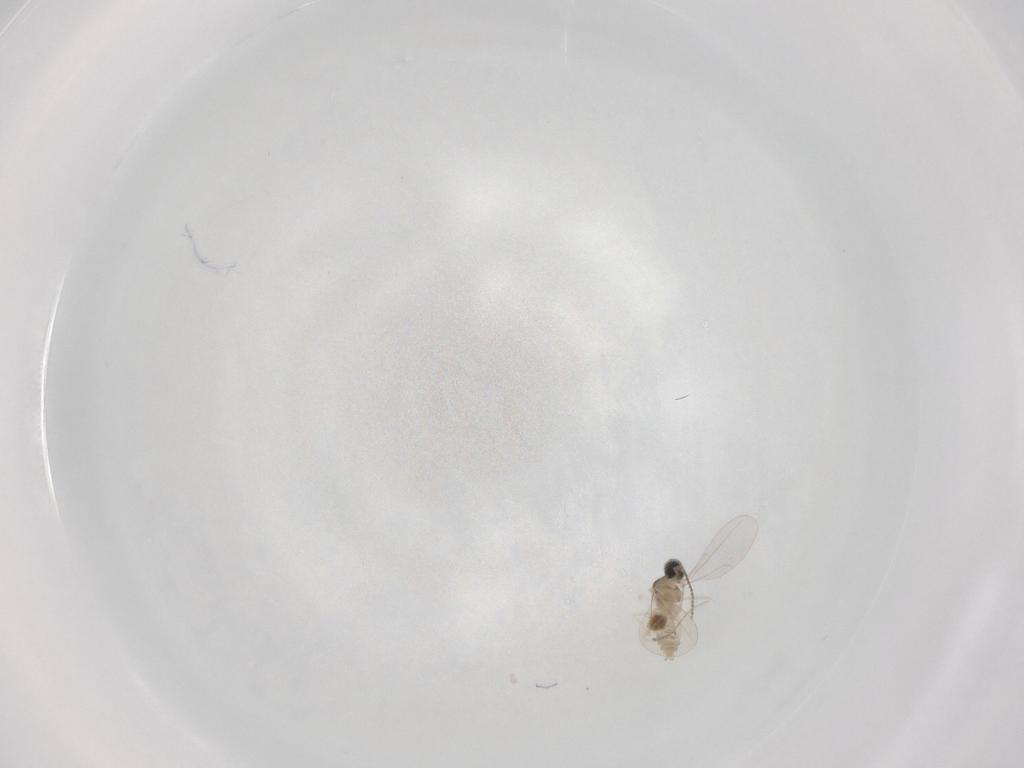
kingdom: Animalia
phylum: Arthropoda
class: Insecta
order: Diptera
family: Cecidomyiidae
